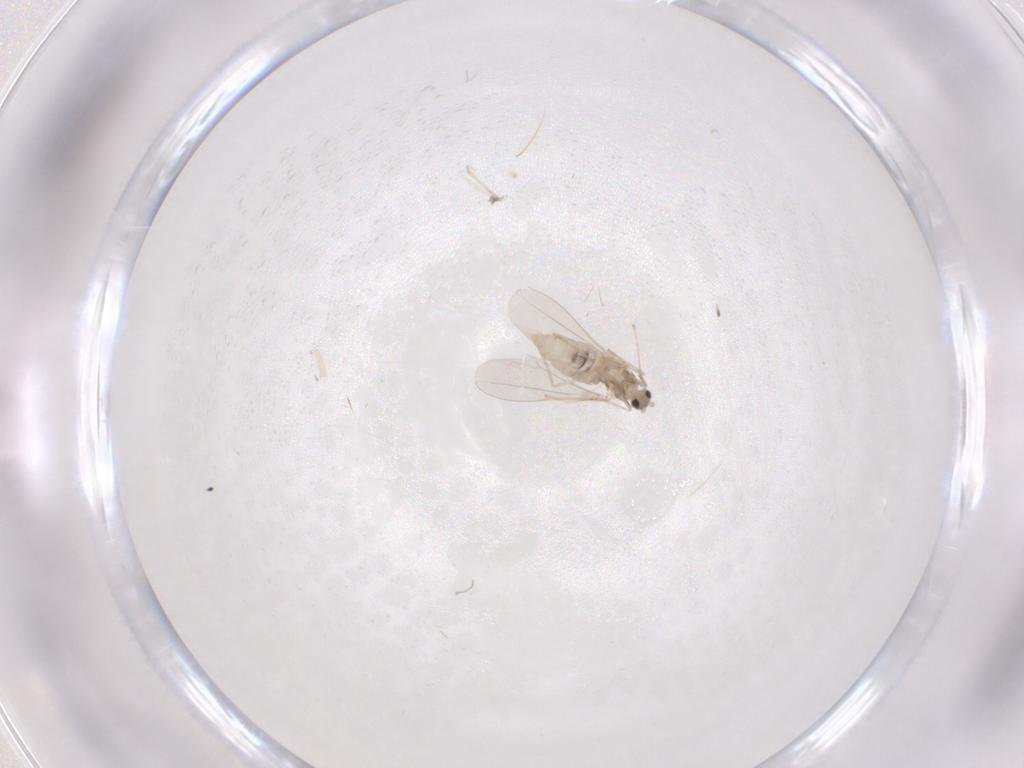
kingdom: Animalia
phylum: Arthropoda
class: Insecta
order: Diptera
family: Cecidomyiidae
